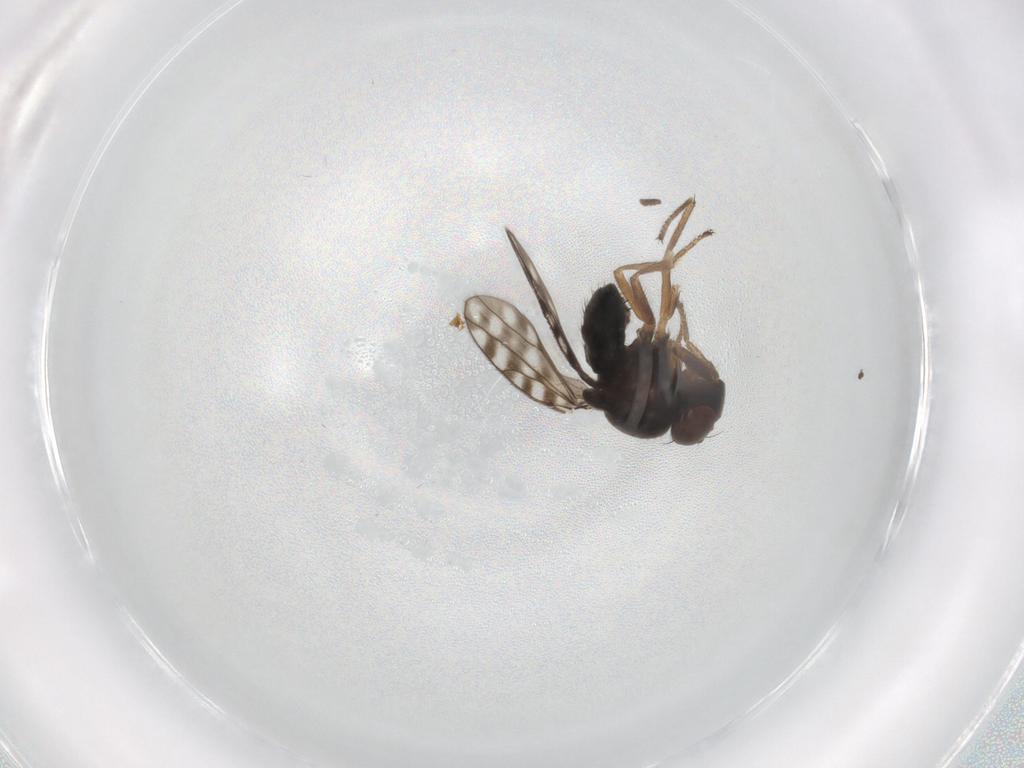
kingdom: Animalia
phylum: Arthropoda
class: Insecta
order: Diptera
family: Ephydridae
